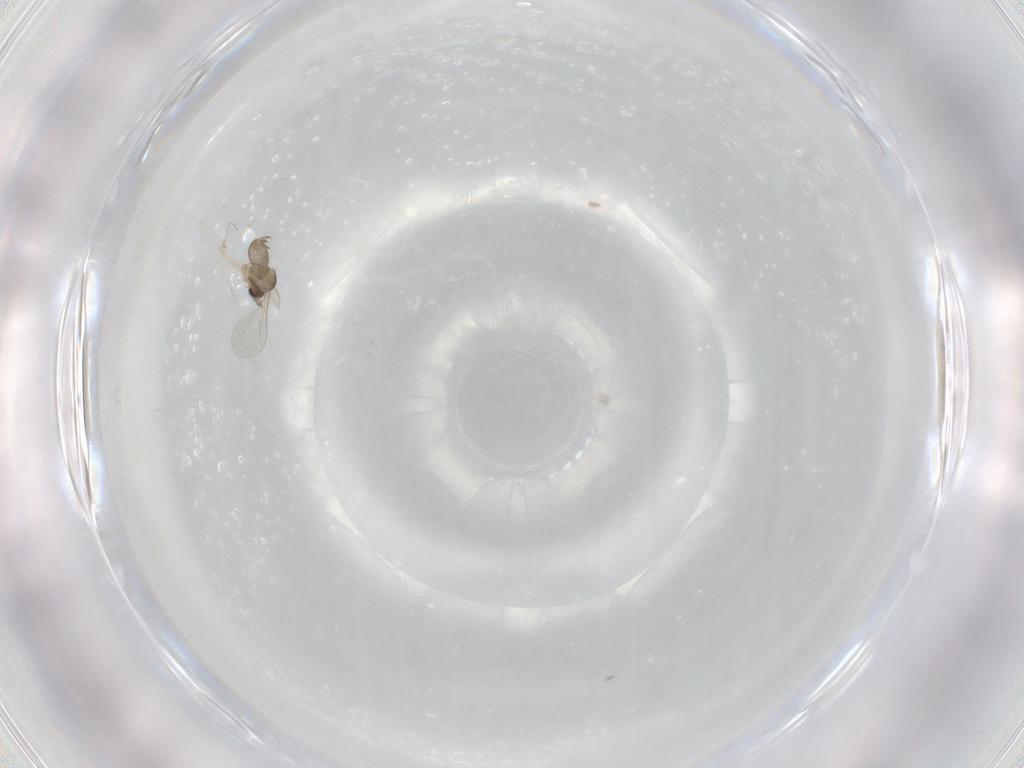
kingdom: Animalia
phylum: Arthropoda
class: Insecta
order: Diptera
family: Cecidomyiidae
